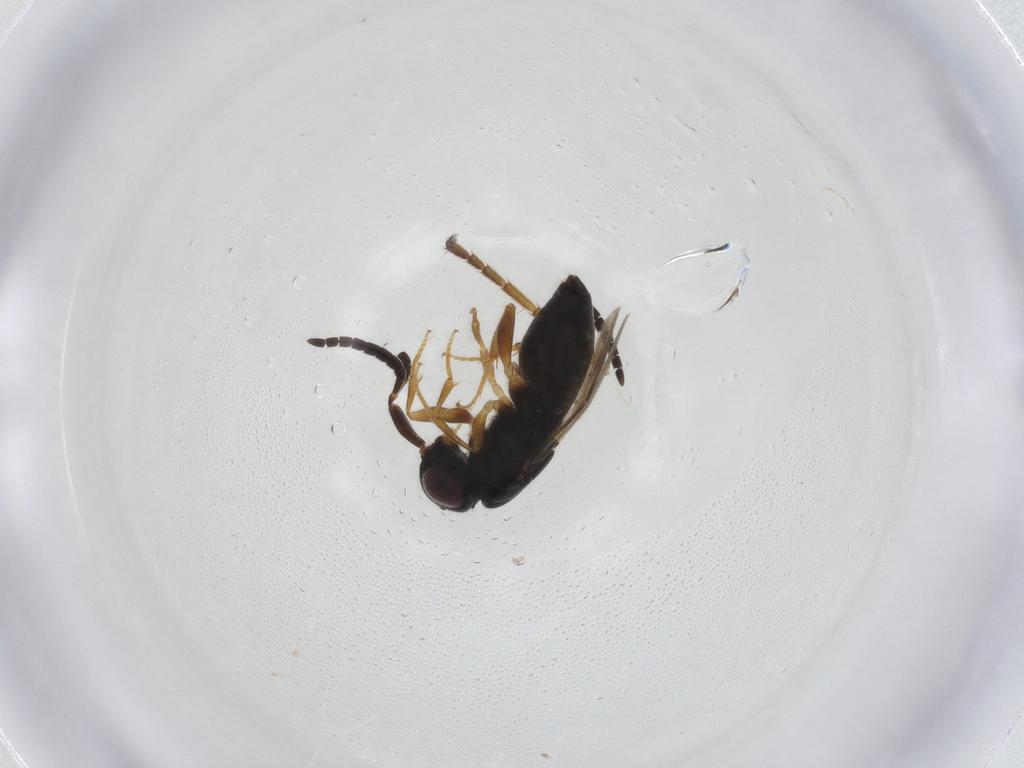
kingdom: Animalia
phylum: Arthropoda
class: Insecta
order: Hymenoptera
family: Ichneumonidae
